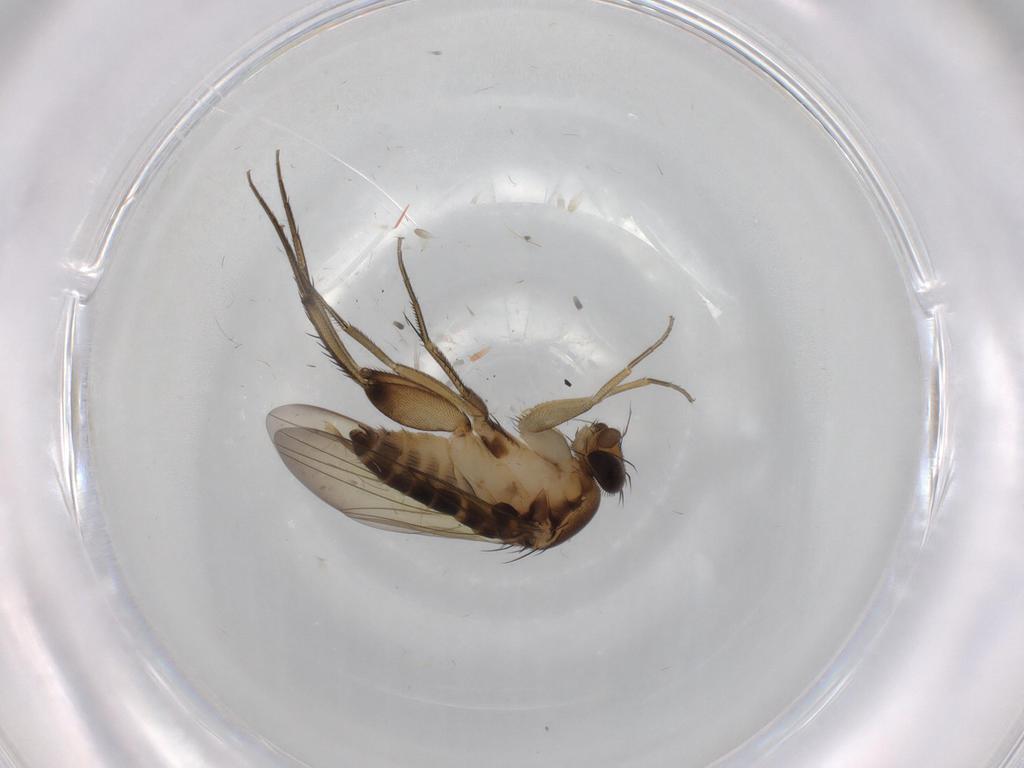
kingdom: Animalia
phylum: Arthropoda
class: Insecta
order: Diptera
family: Phoridae
